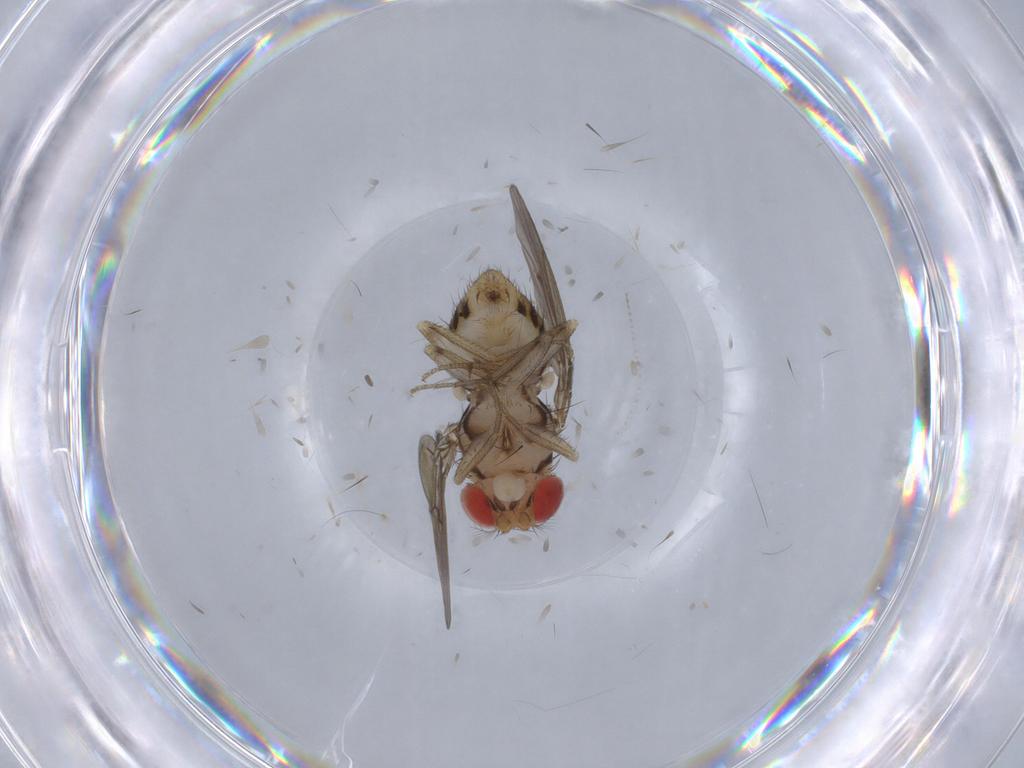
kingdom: Animalia
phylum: Arthropoda
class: Insecta
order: Diptera
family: Drosophilidae
